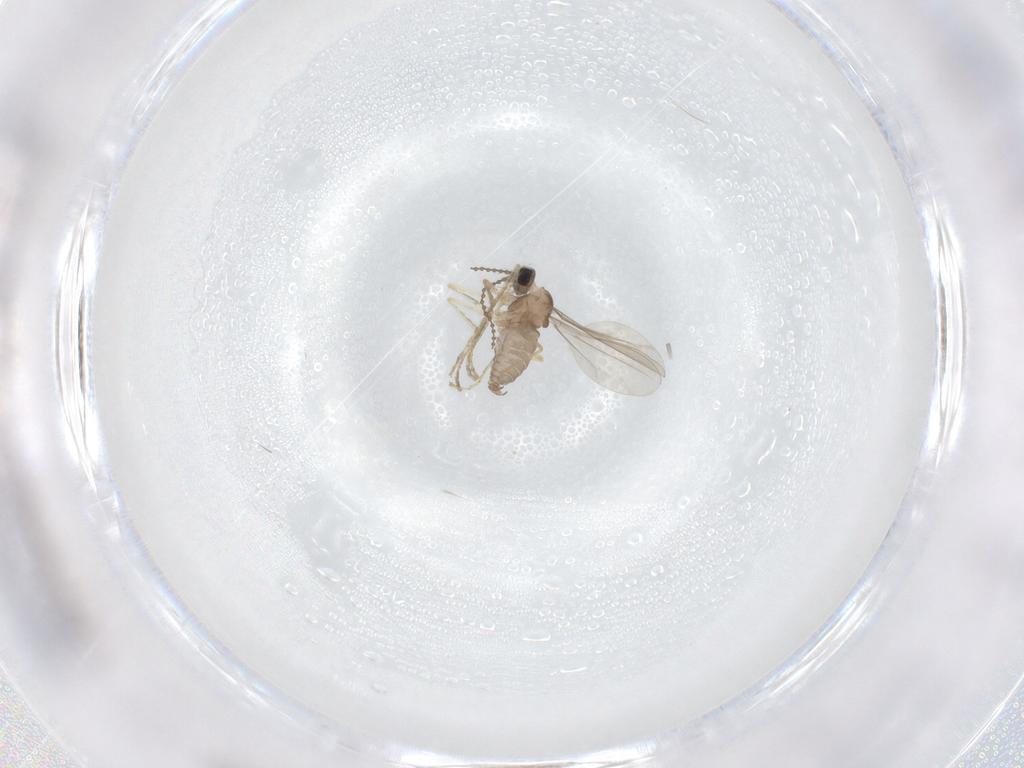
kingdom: Animalia
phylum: Arthropoda
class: Insecta
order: Diptera
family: Cecidomyiidae
